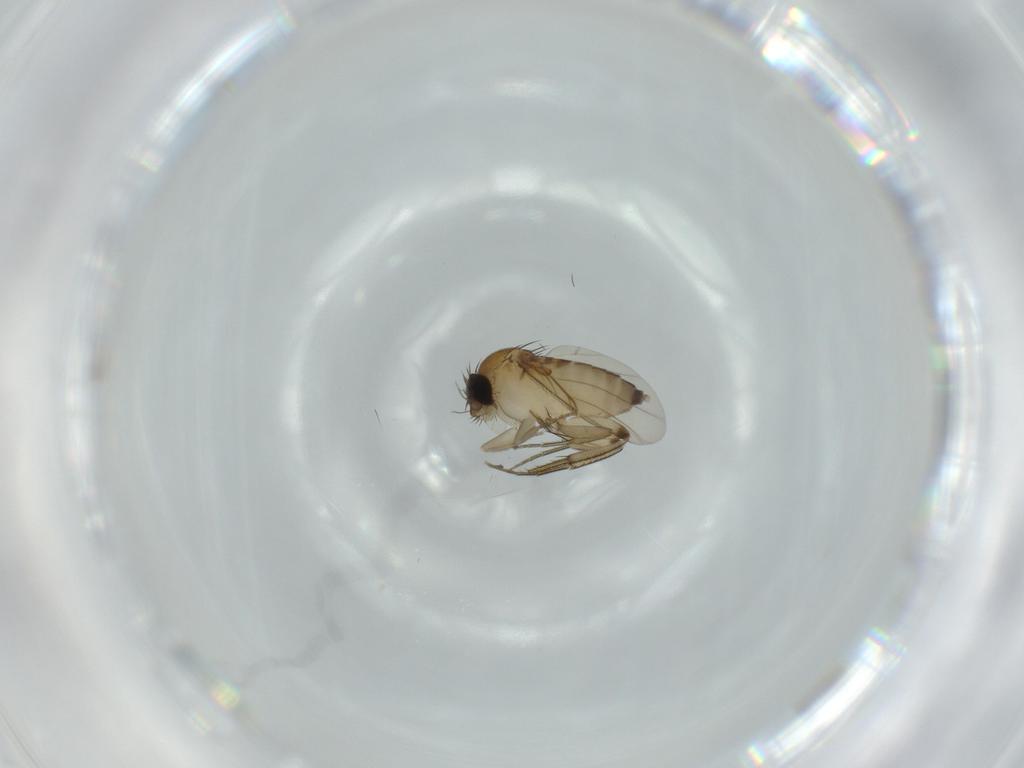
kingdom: Animalia
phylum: Arthropoda
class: Insecta
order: Diptera
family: Phoridae
